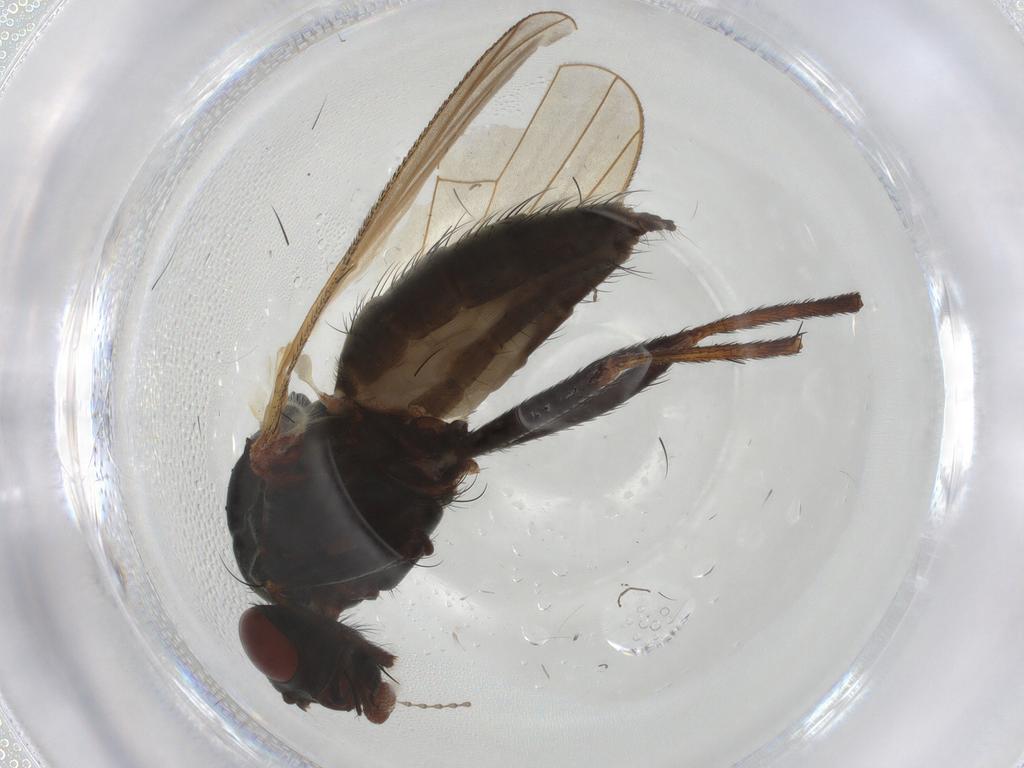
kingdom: Animalia
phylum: Arthropoda
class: Insecta
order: Diptera
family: Anthomyiidae
